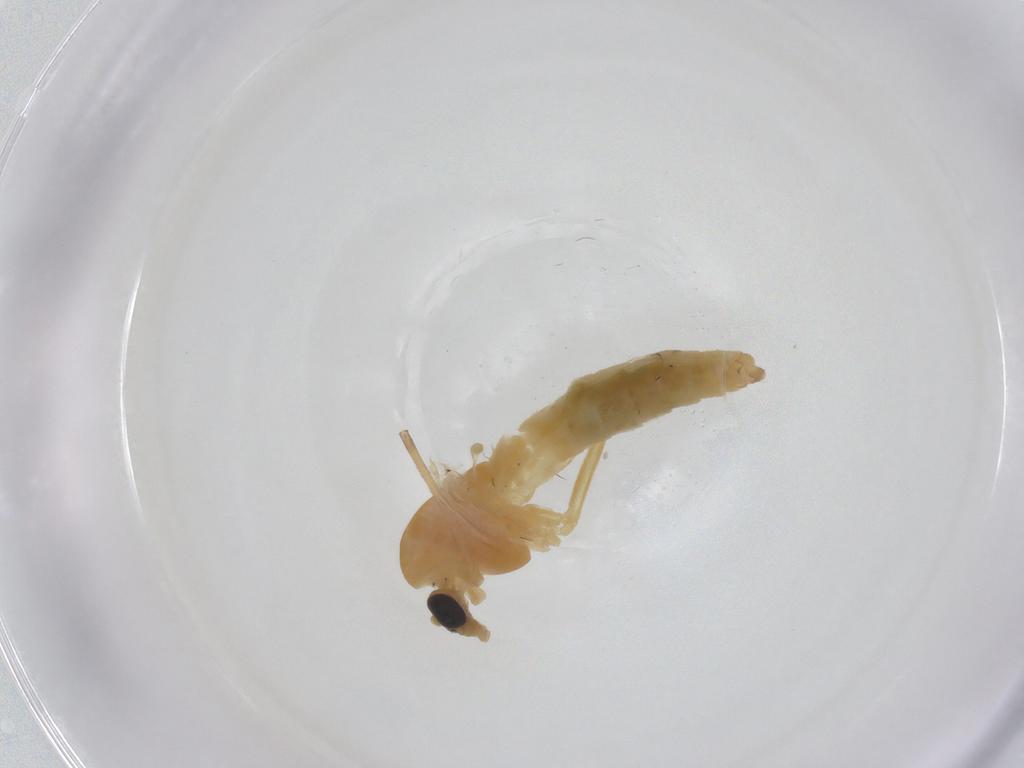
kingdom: Animalia
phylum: Arthropoda
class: Insecta
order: Diptera
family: Chironomidae
